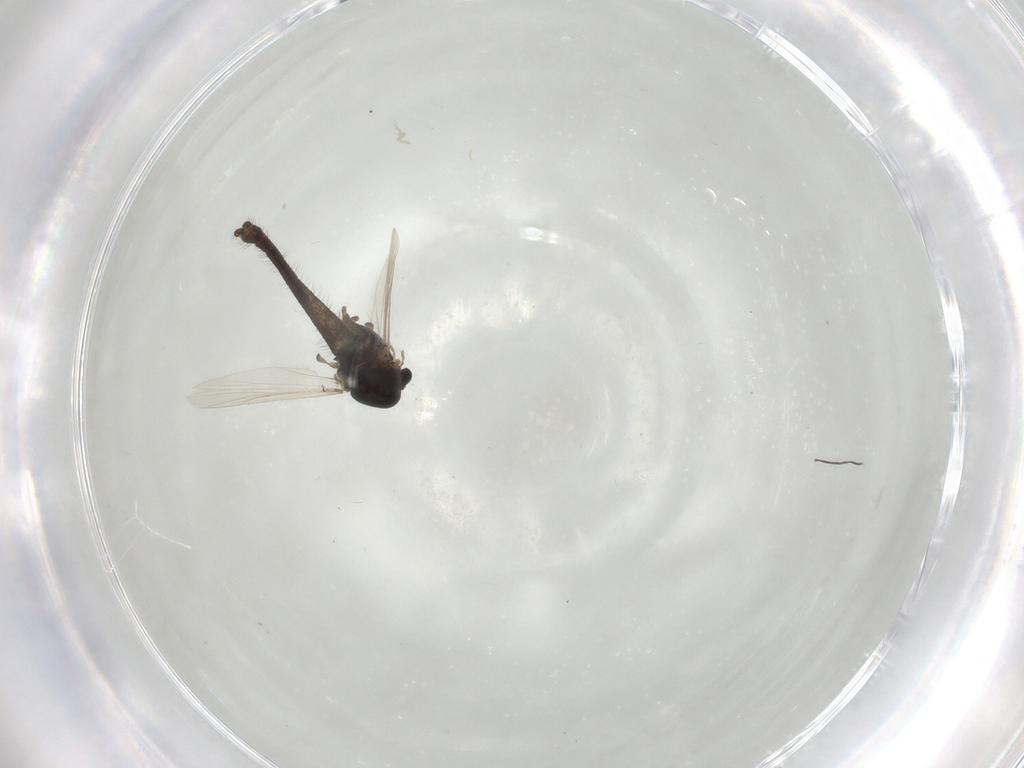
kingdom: Animalia
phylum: Arthropoda
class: Insecta
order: Diptera
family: Chironomidae
